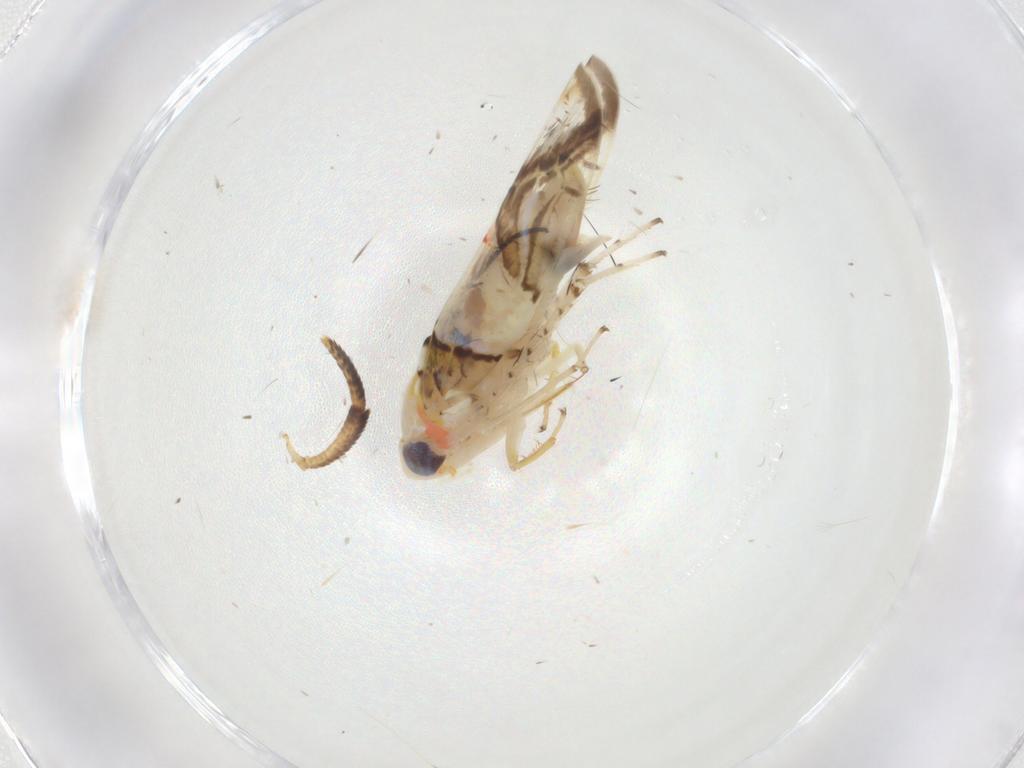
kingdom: Animalia
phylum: Arthropoda
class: Insecta
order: Hemiptera
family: Cicadellidae
